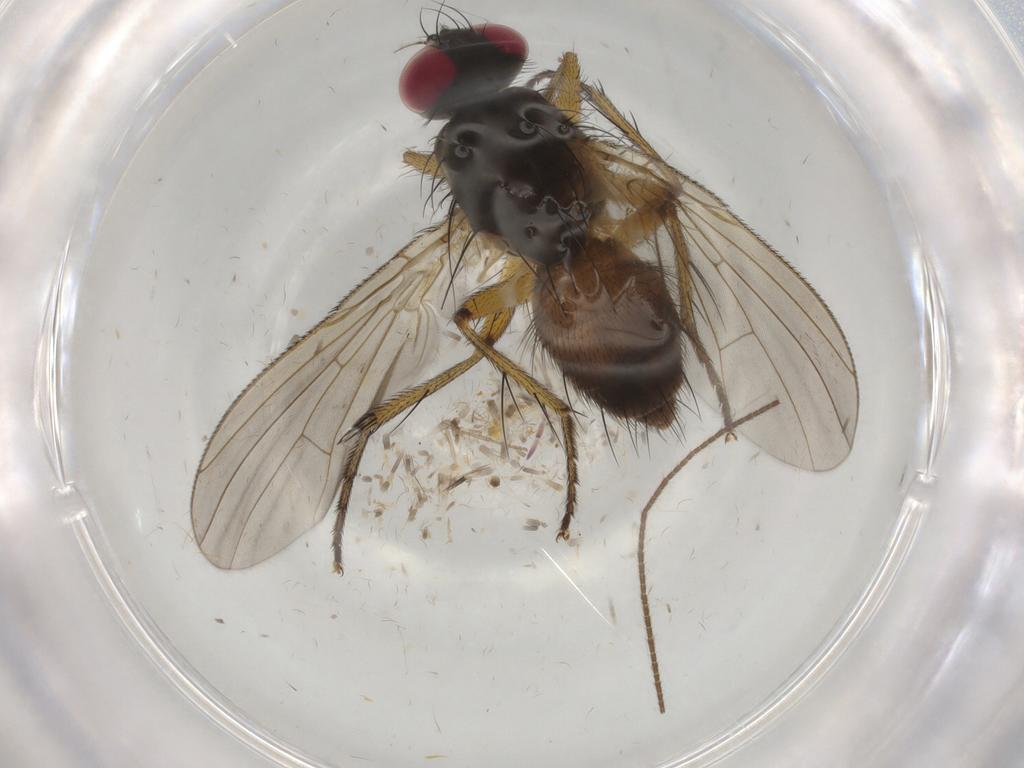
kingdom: Animalia
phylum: Arthropoda
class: Insecta
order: Diptera
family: Muscidae
